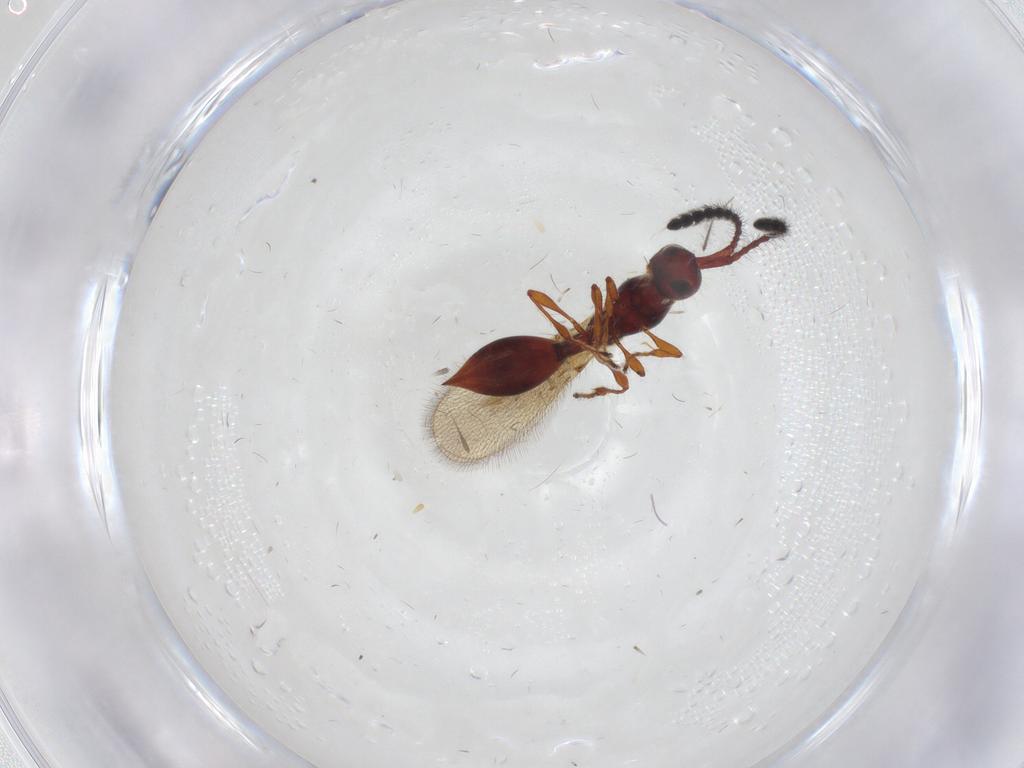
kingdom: Animalia
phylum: Arthropoda
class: Insecta
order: Hymenoptera
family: Diapriidae
